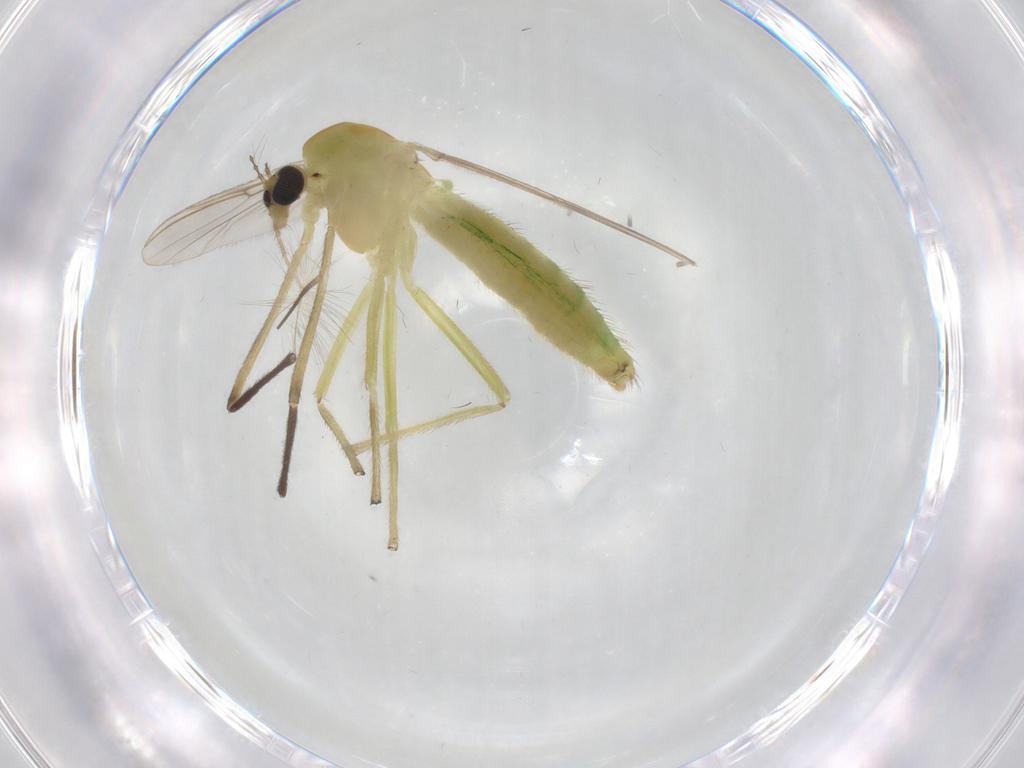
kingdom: Animalia
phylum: Arthropoda
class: Insecta
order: Diptera
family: Chironomidae
